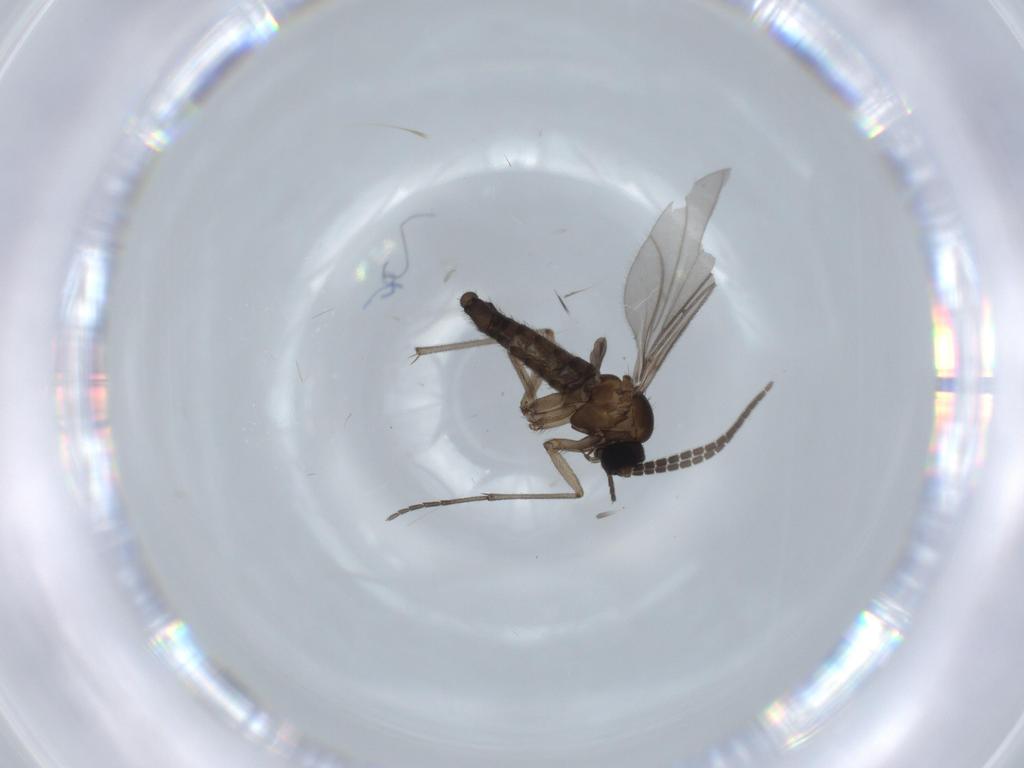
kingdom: Animalia
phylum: Arthropoda
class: Insecta
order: Diptera
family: Sciaridae
